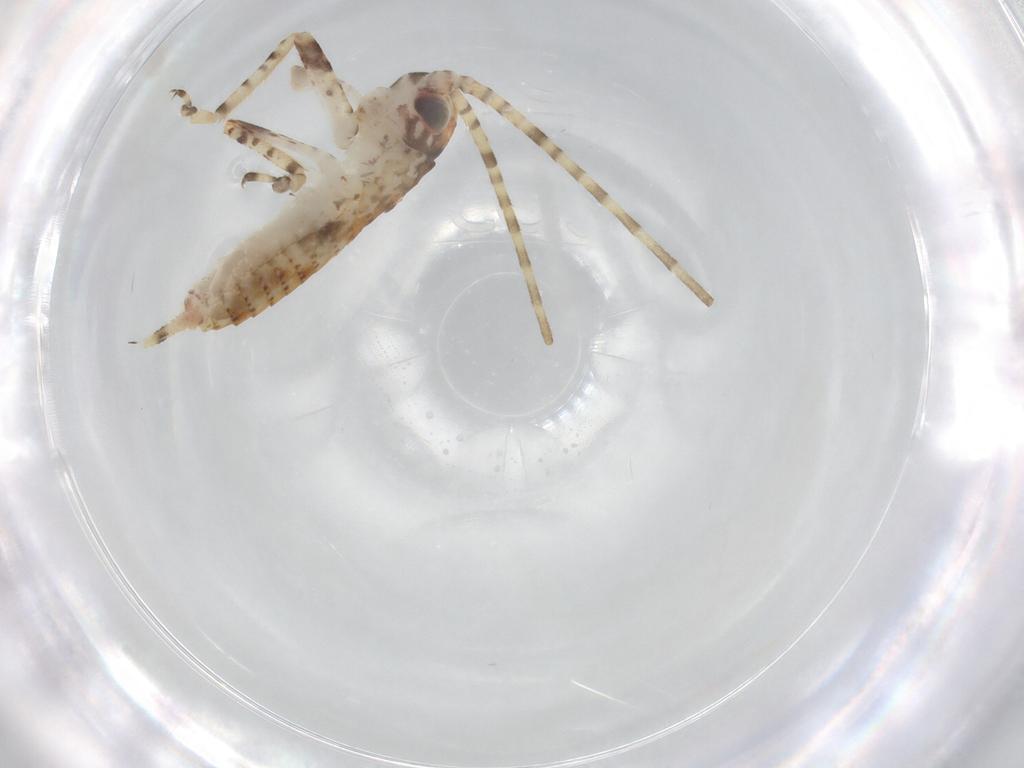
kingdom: Animalia
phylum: Arthropoda
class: Insecta
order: Orthoptera
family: Gryllidae
